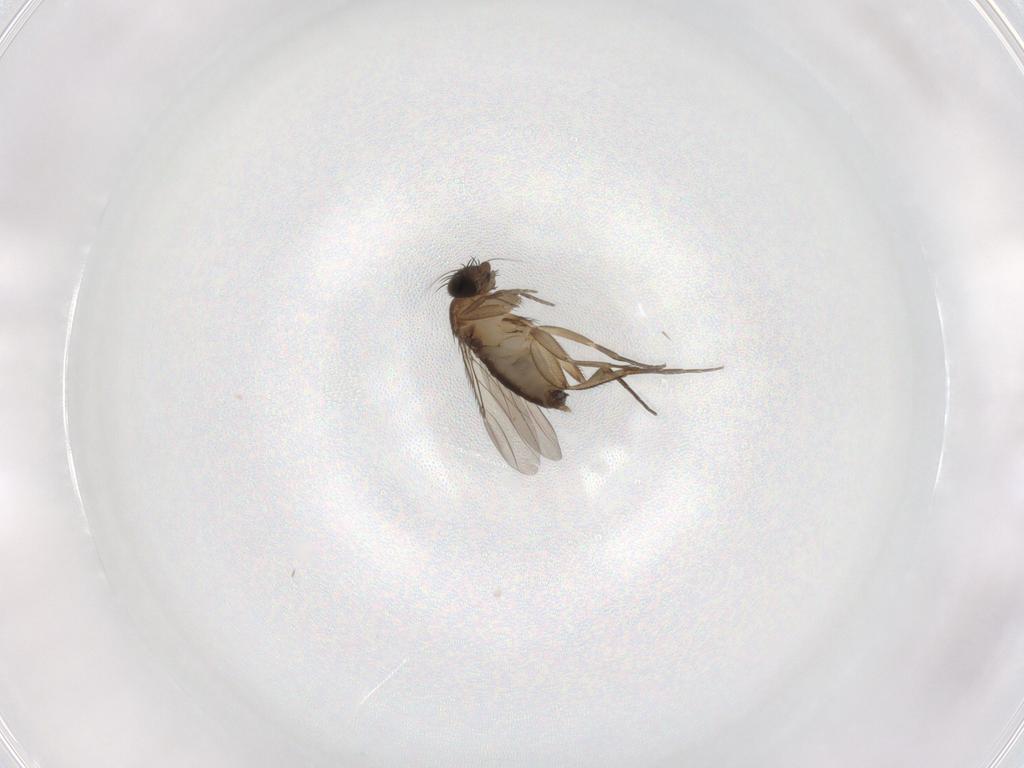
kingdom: Animalia
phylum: Arthropoda
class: Insecta
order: Diptera
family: Phoridae
